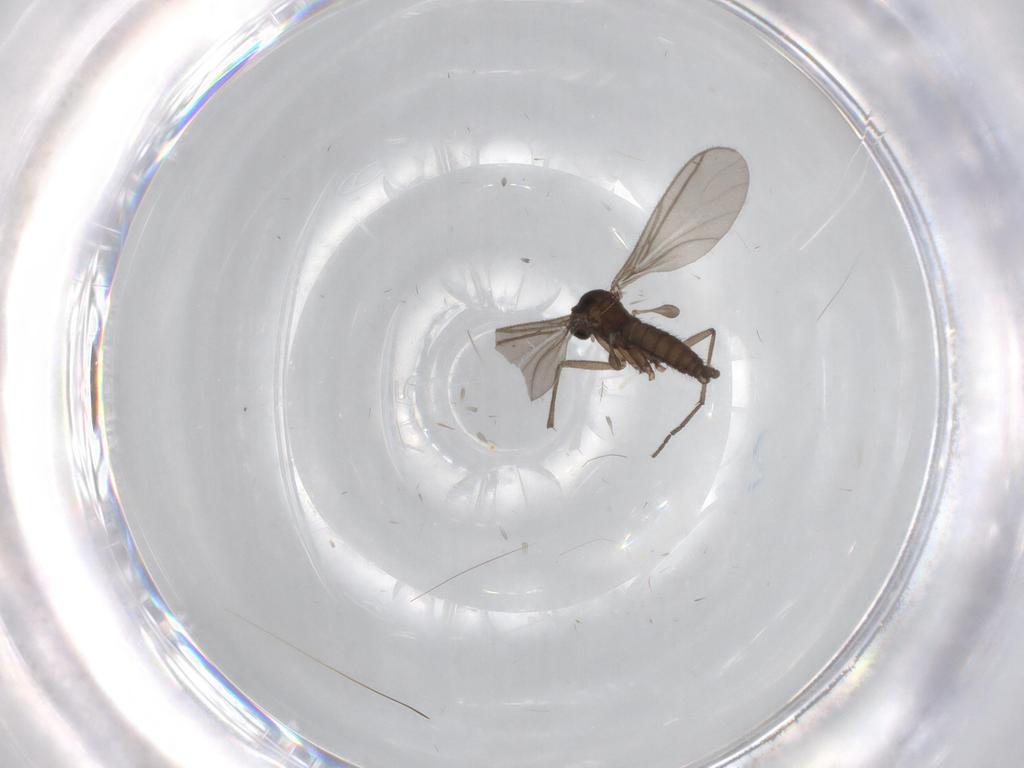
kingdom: Animalia
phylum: Arthropoda
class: Insecta
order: Diptera
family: Sciaridae
